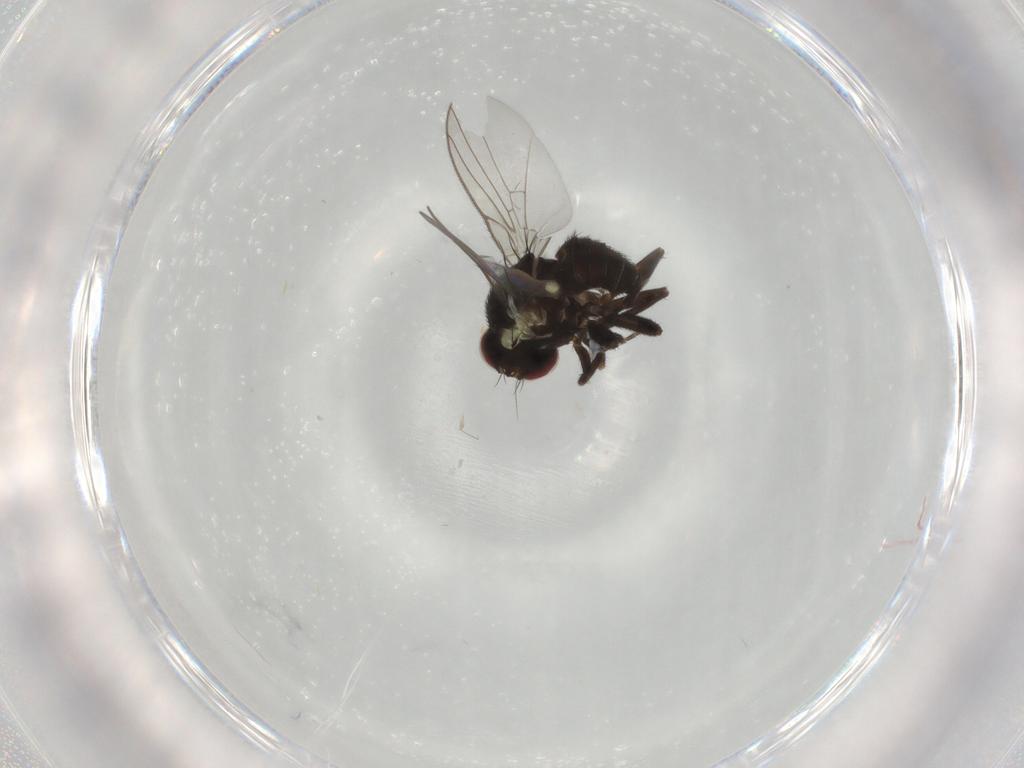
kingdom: Animalia
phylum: Arthropoda
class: Insecta
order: Diptera
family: Agromyzidae
